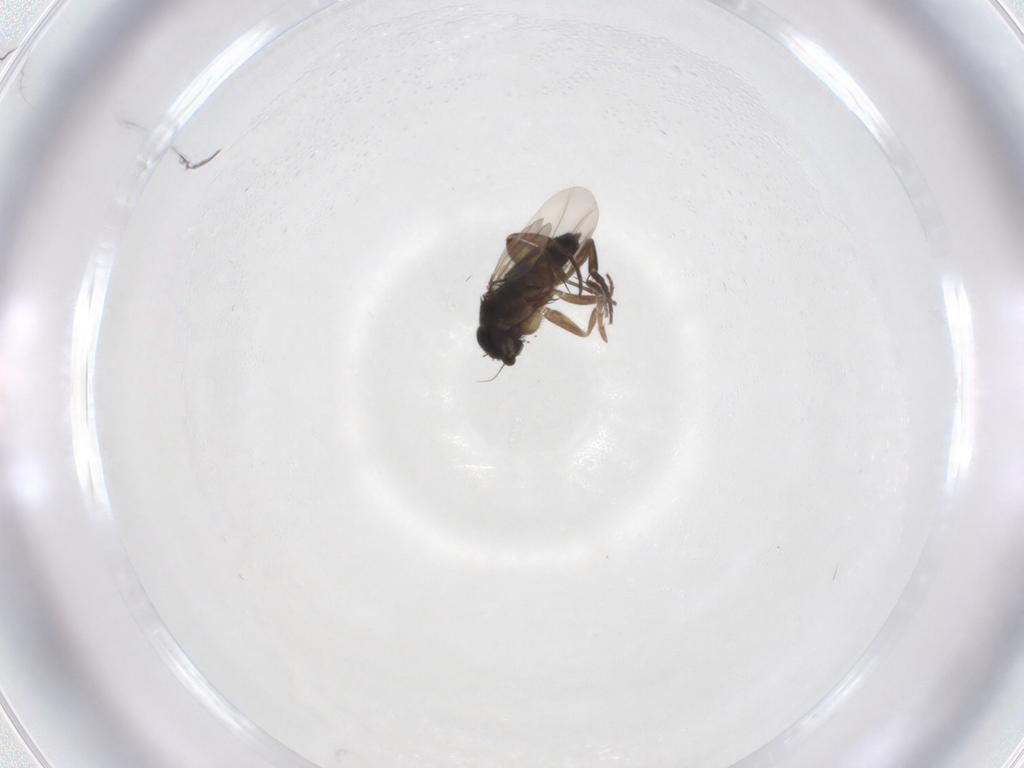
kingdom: Animalia
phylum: Arthropoda
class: Insecta
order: Diptera
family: Phoridae
